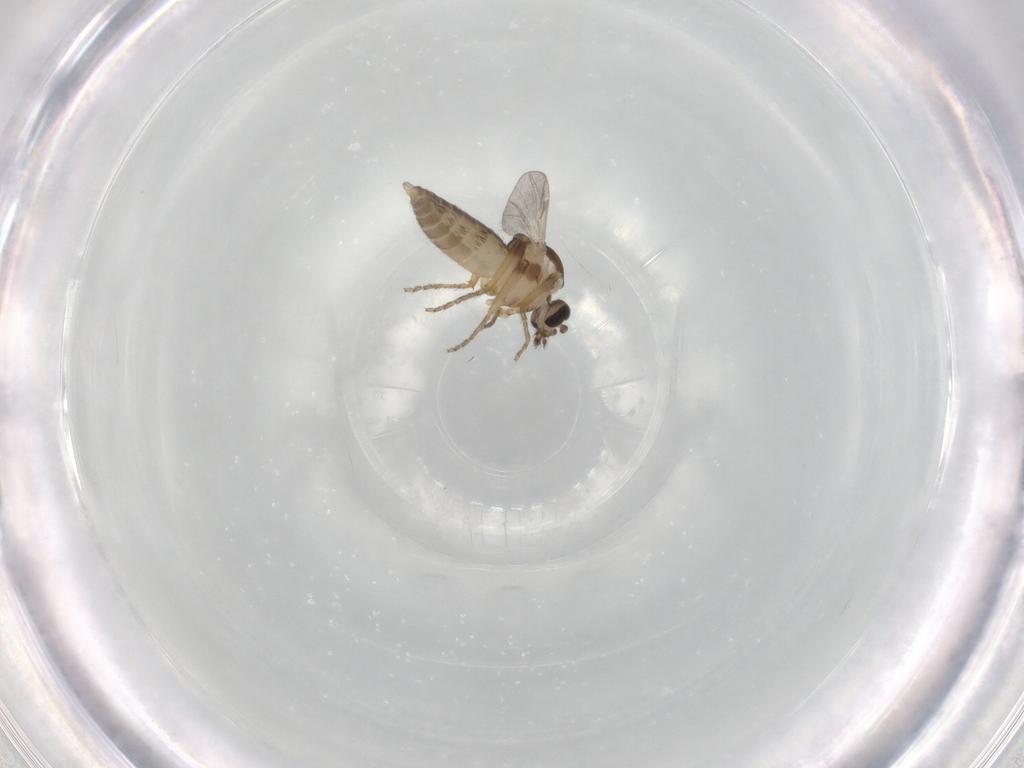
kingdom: Animalia
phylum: Arthropoda
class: Insecta
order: Diptera
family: Ceratopogonidae
